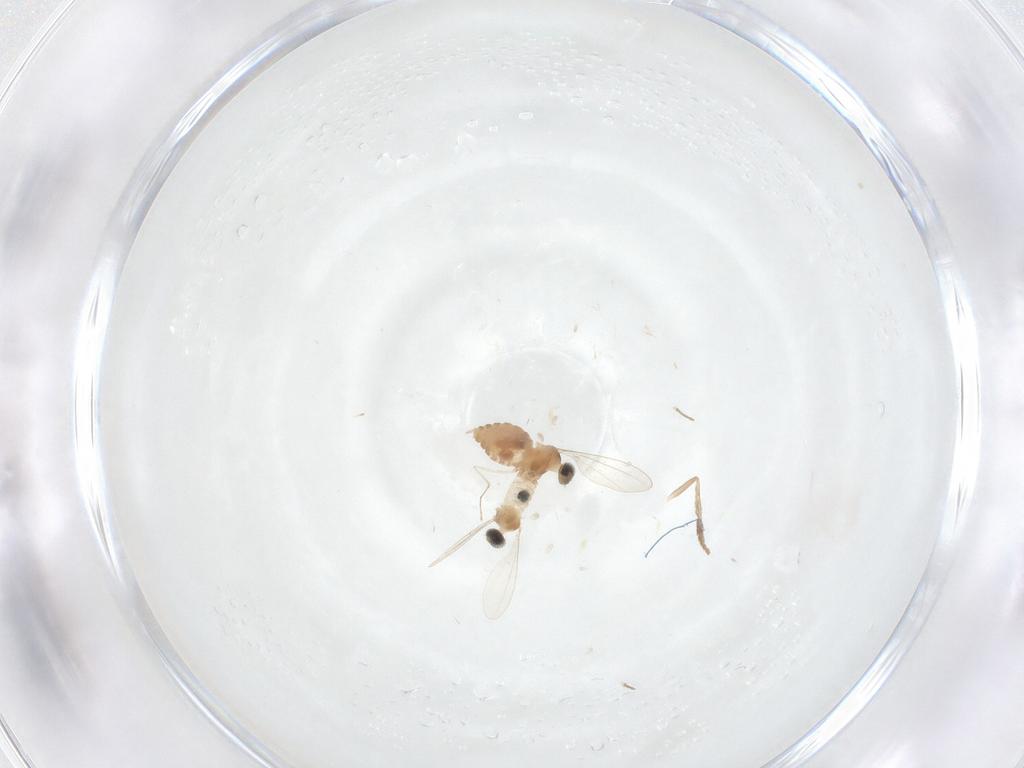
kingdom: Animalia
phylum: Arthropoda
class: Insecta
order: Diptera
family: Cecidomyiidae
